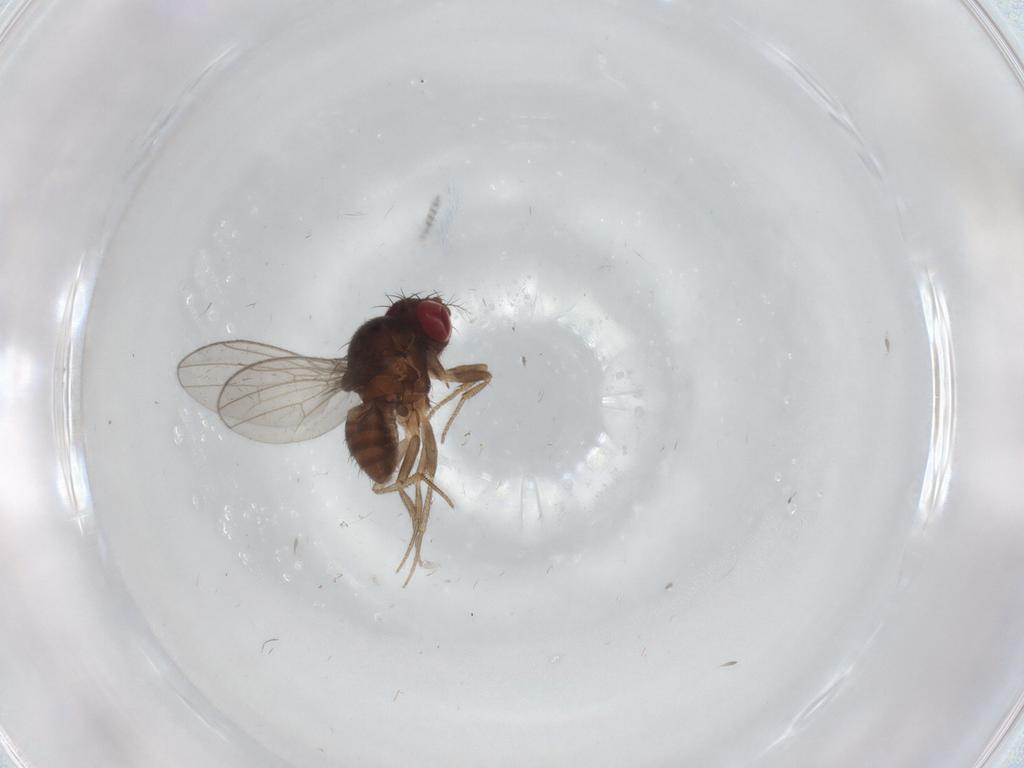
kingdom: Animalia
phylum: Arthropoda
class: Insecta
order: Diptera
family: Drosophilidae
